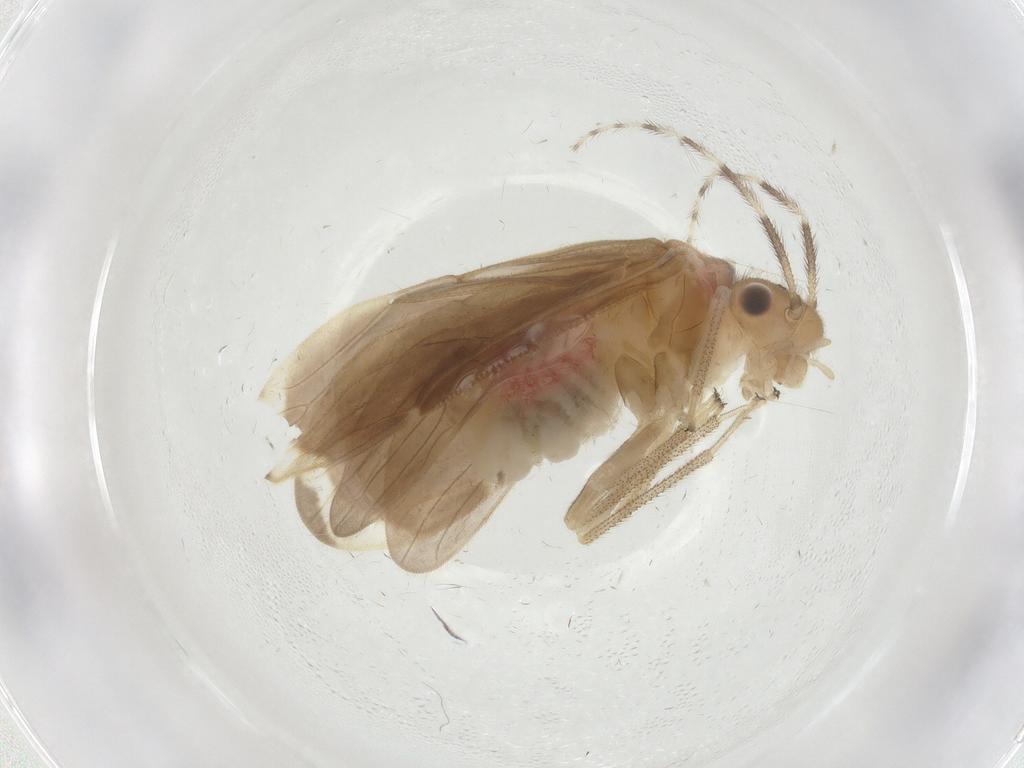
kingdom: Animalia
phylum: Arthropoda
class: Insecta
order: Psocodea
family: Amphipsocidae
